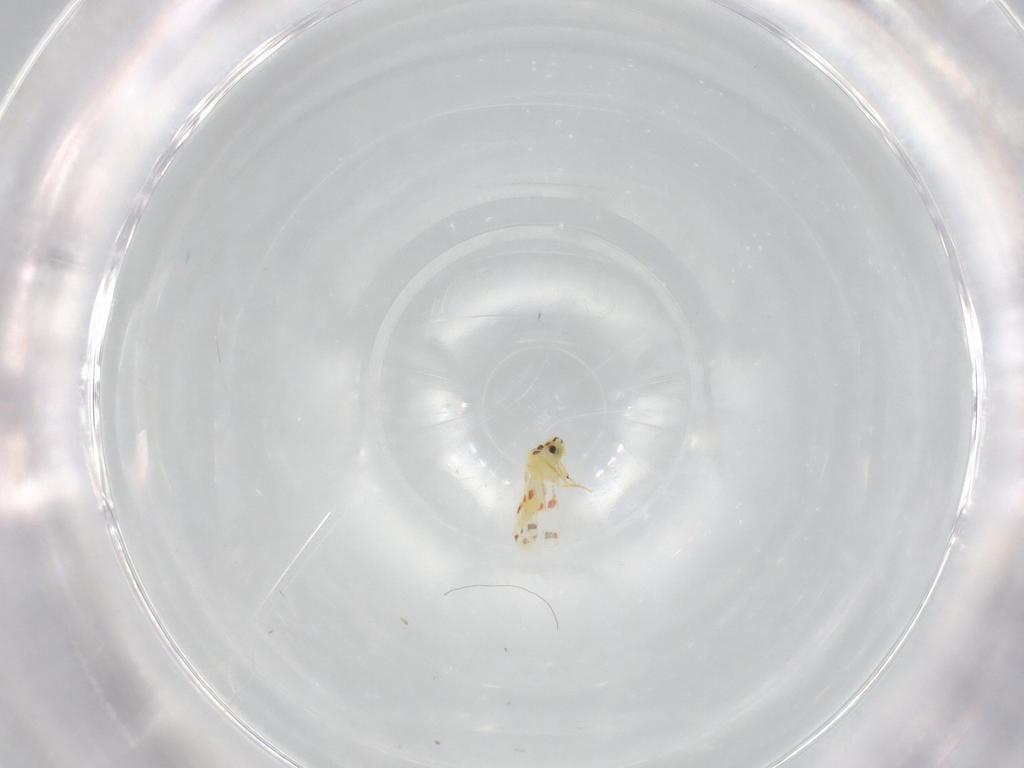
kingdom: Animalia
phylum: Arthropoda
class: Insecta
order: Hemiptera
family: Aleyrodidae
